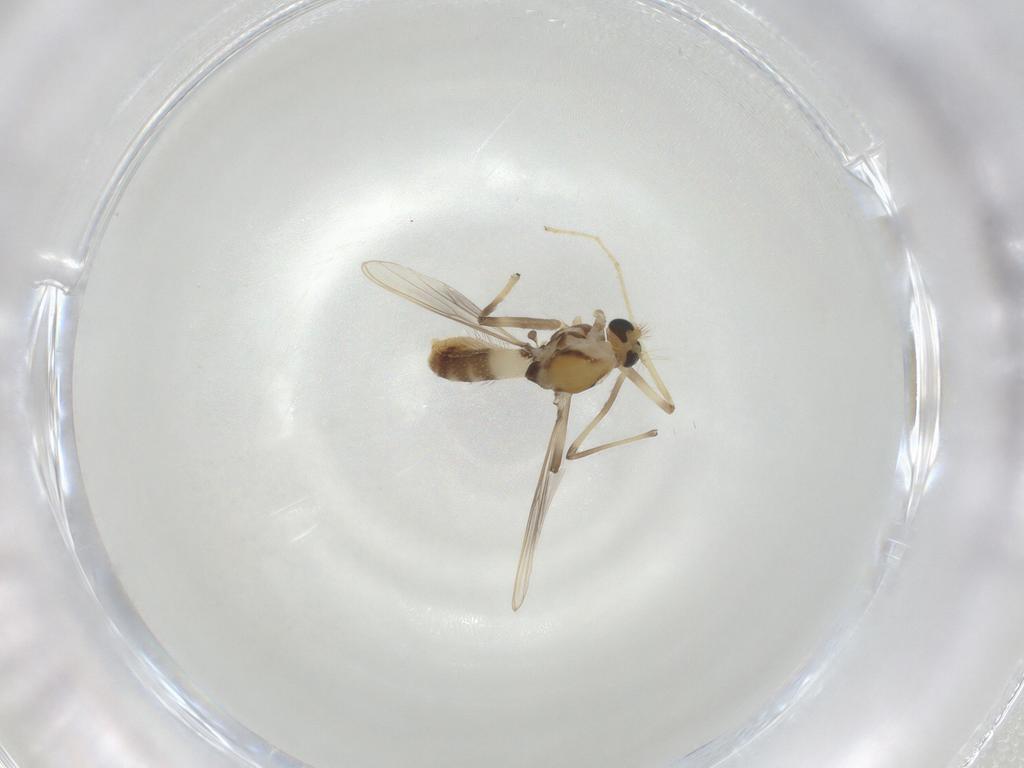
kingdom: Animalia
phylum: Arthropoda
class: Insecta
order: Diptera
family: Chironomidae
